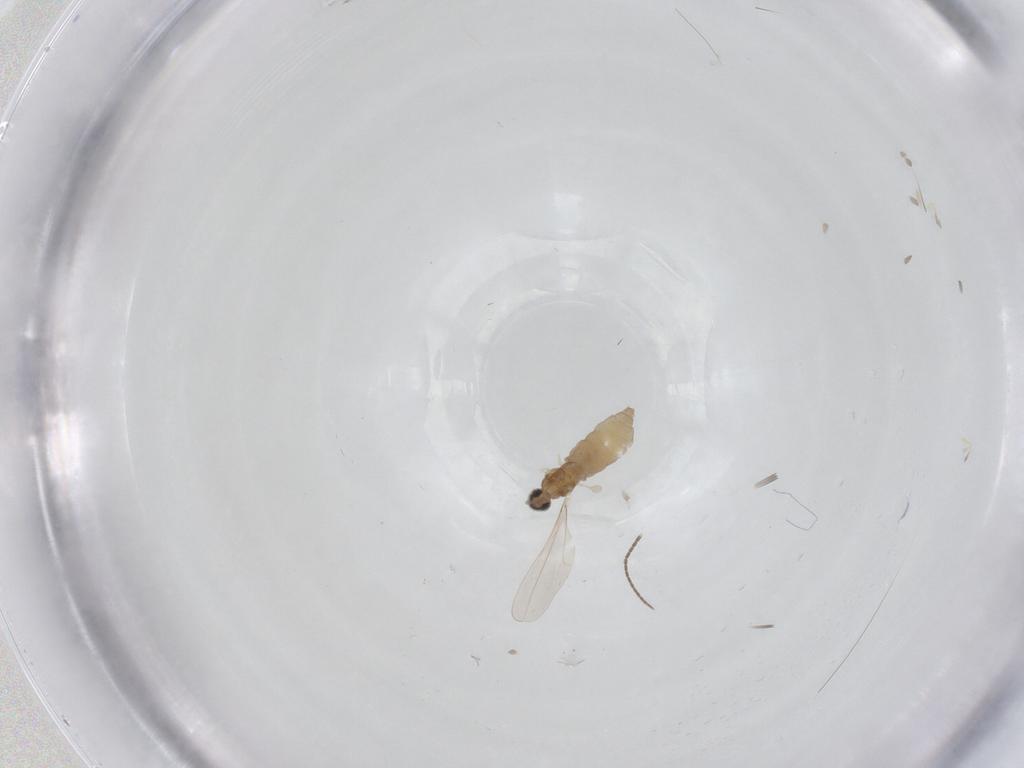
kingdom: Animalia
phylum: Arthropoda
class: Insecta
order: Diptera
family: Cecidomyiidae
